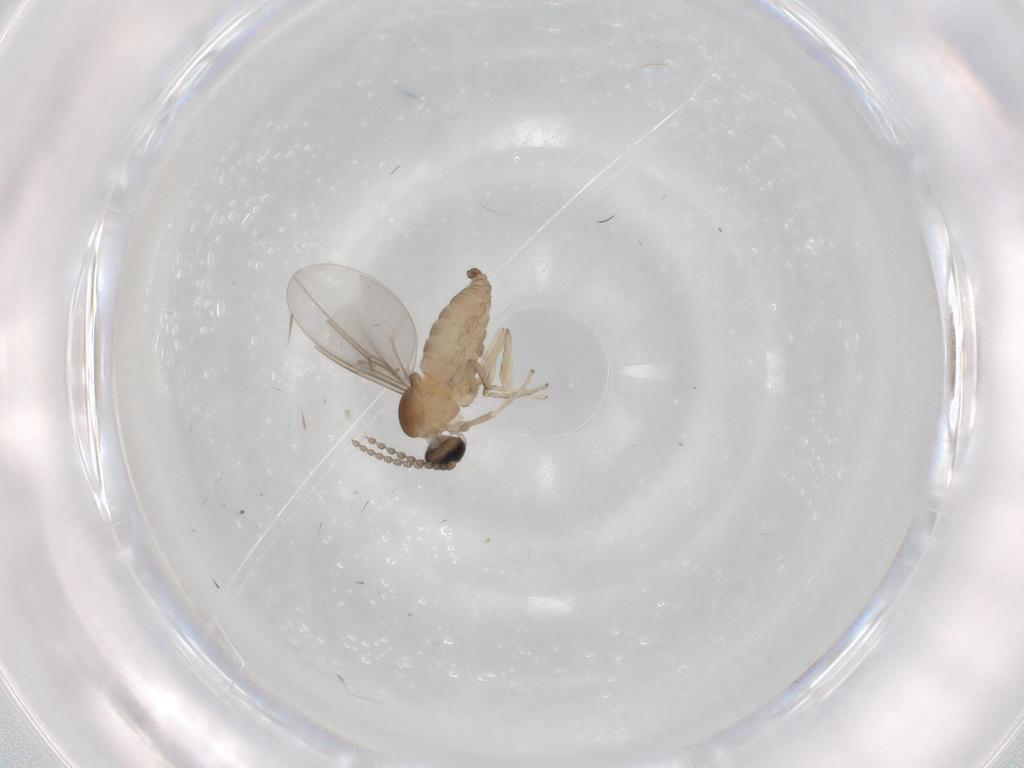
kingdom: Animalia
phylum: Arthropoda
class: Insecta
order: Diptera
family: Cecidomyiidae
